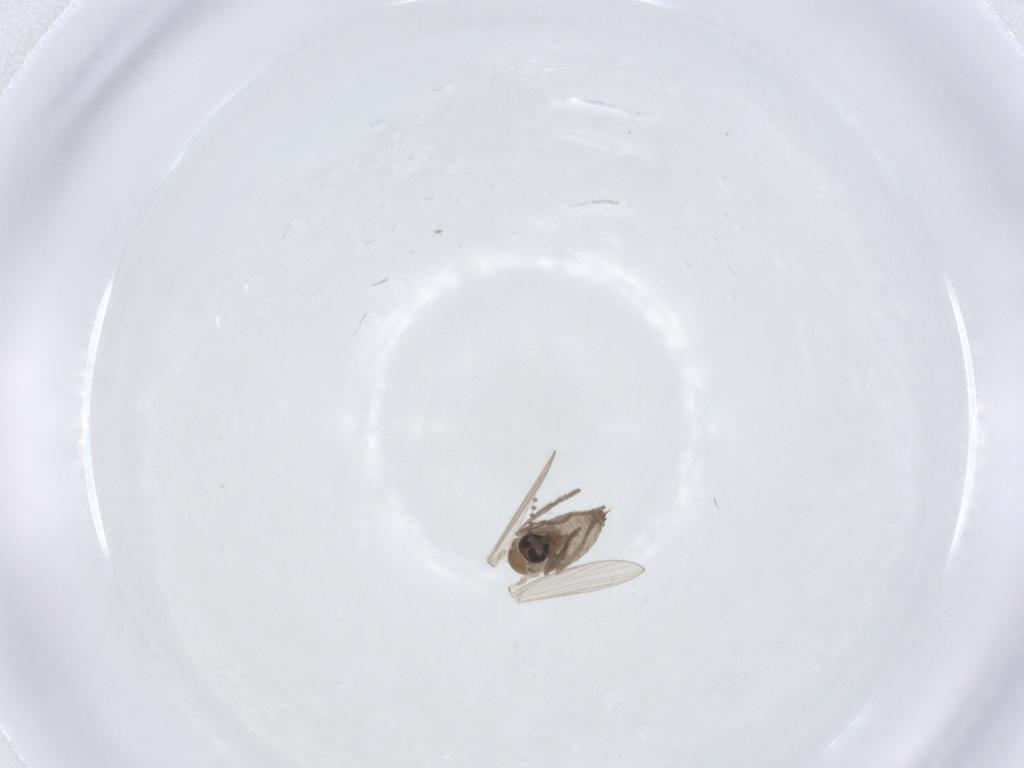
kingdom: Animalia
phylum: Arthropoda
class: Insecta
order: Diptera
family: Psychodidae
